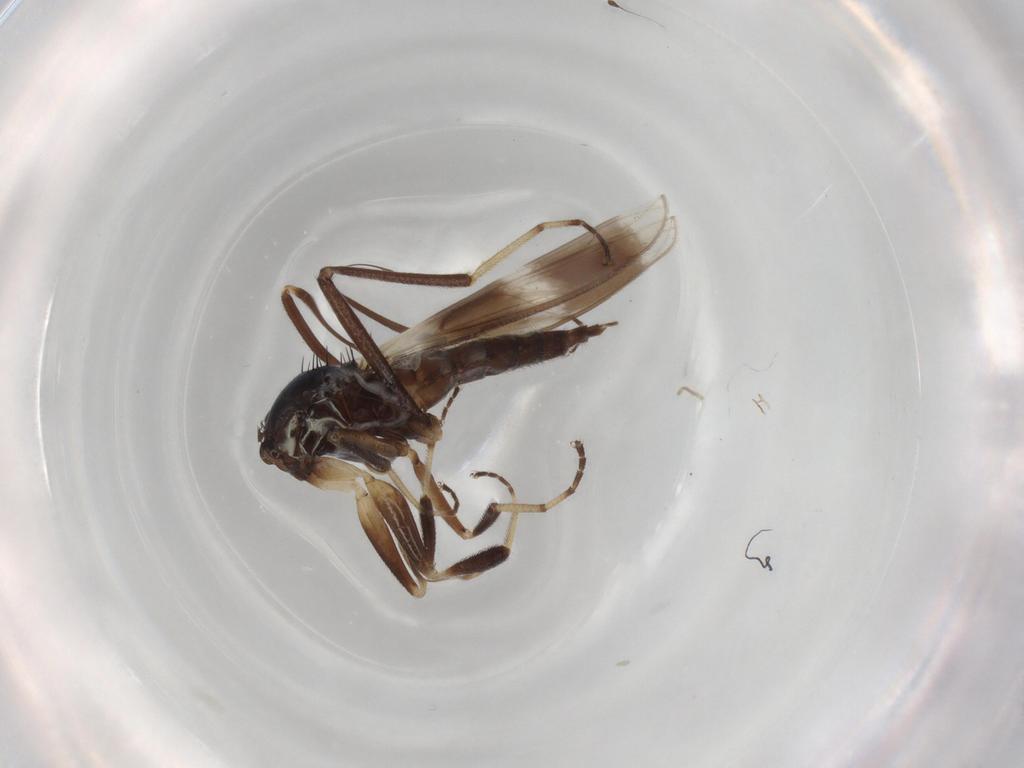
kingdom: Animalia
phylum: Arthropoda
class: Insecta
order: Diptera
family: Hybotidae
